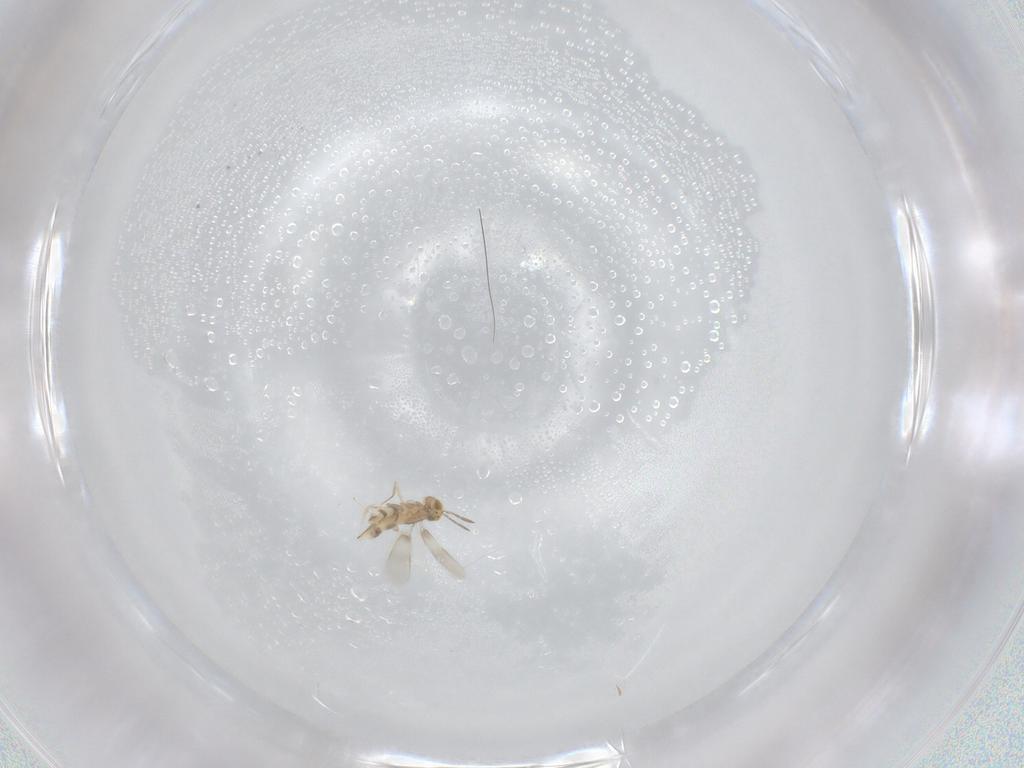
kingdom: Animalia
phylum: Arthropoda
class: Insecta
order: Hymenoptera
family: Aphelinidae
